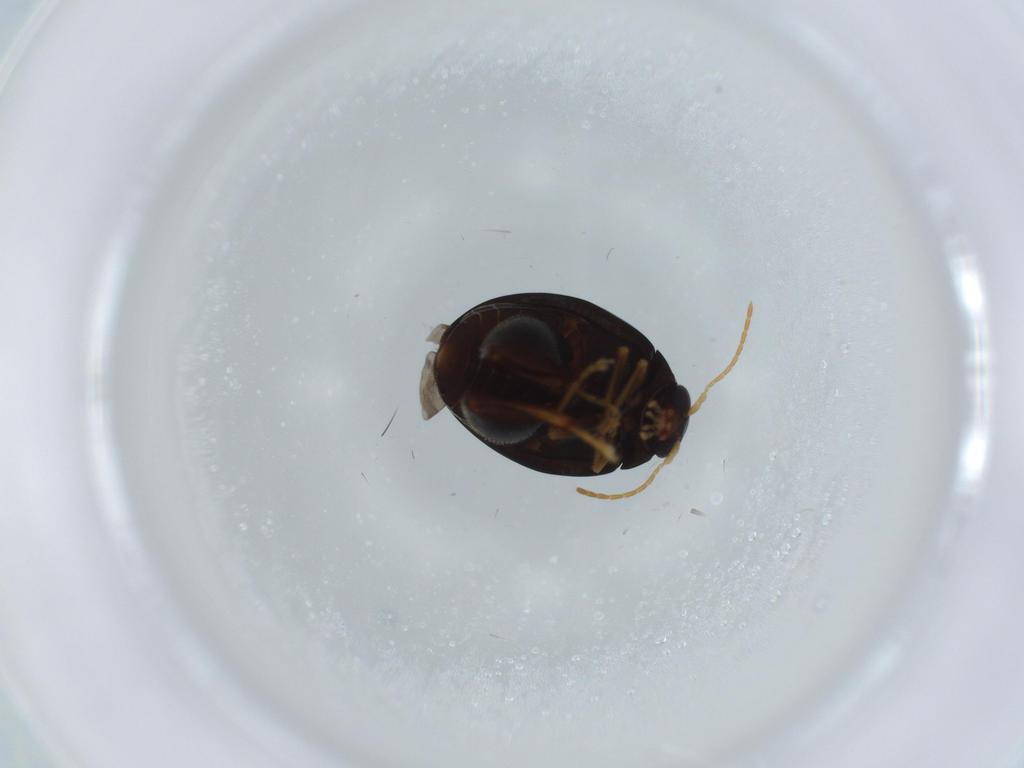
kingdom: Animalia
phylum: Arthropoda
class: Insecta
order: Coleoptera
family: Chrysomelidae
